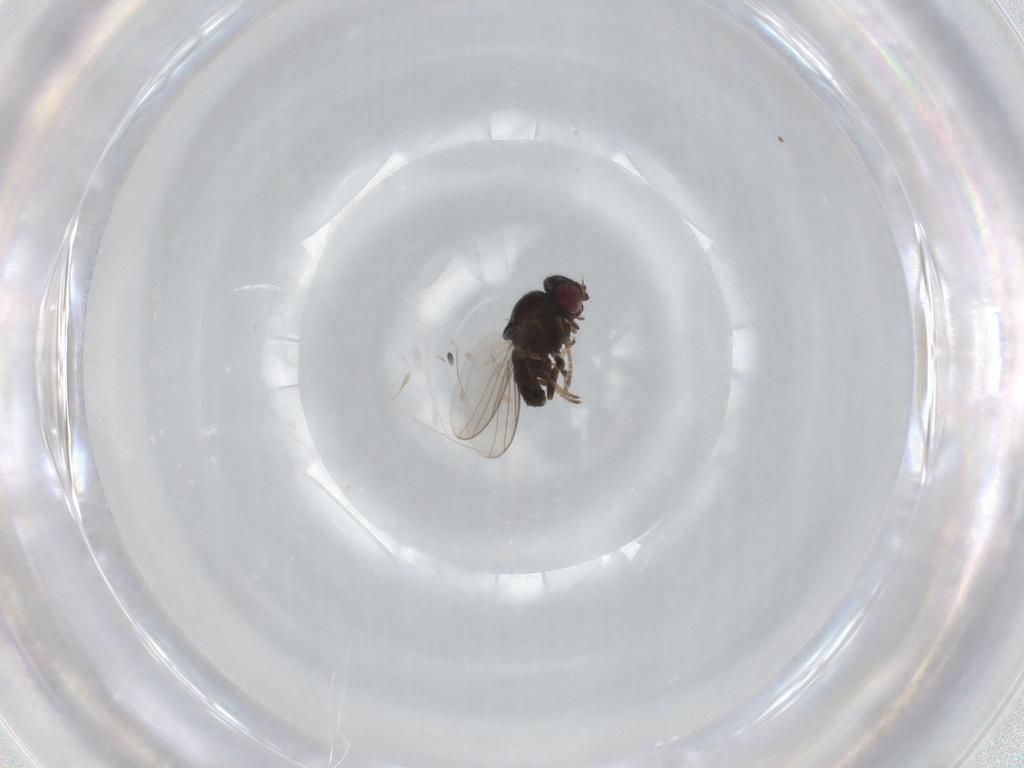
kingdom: Animalia
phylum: Arthropoda
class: Insecta
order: Diptera
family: Chloropidae
